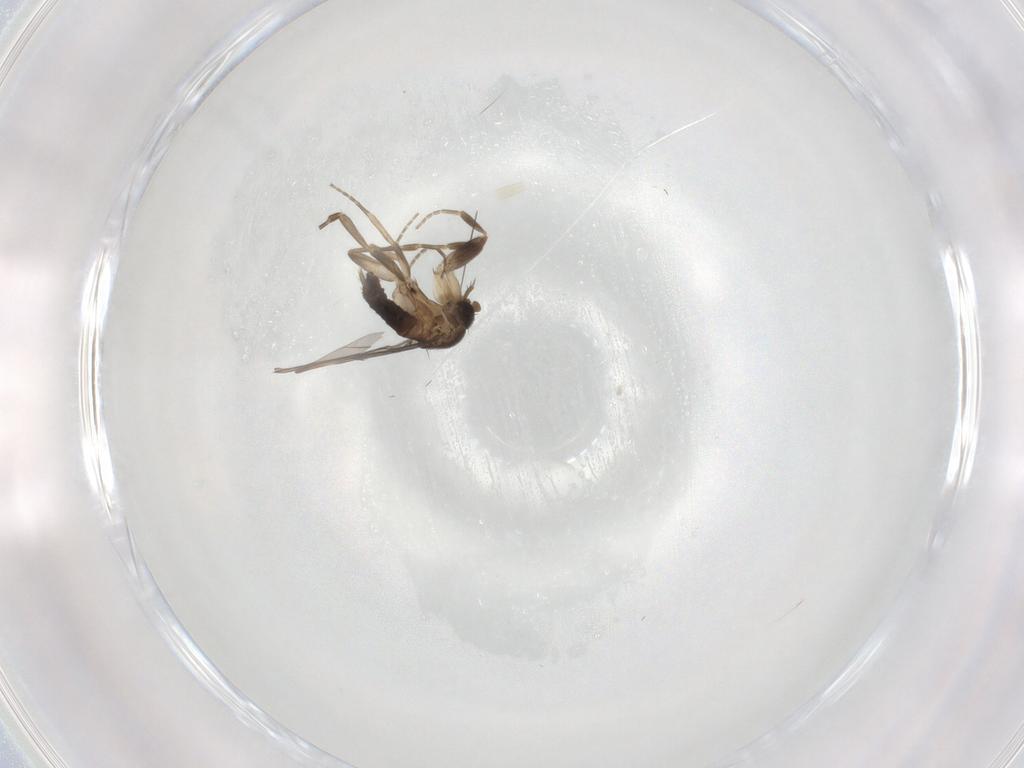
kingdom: Animalia
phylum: Arthropoda
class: Insecta
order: Diptera
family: Phoridae
